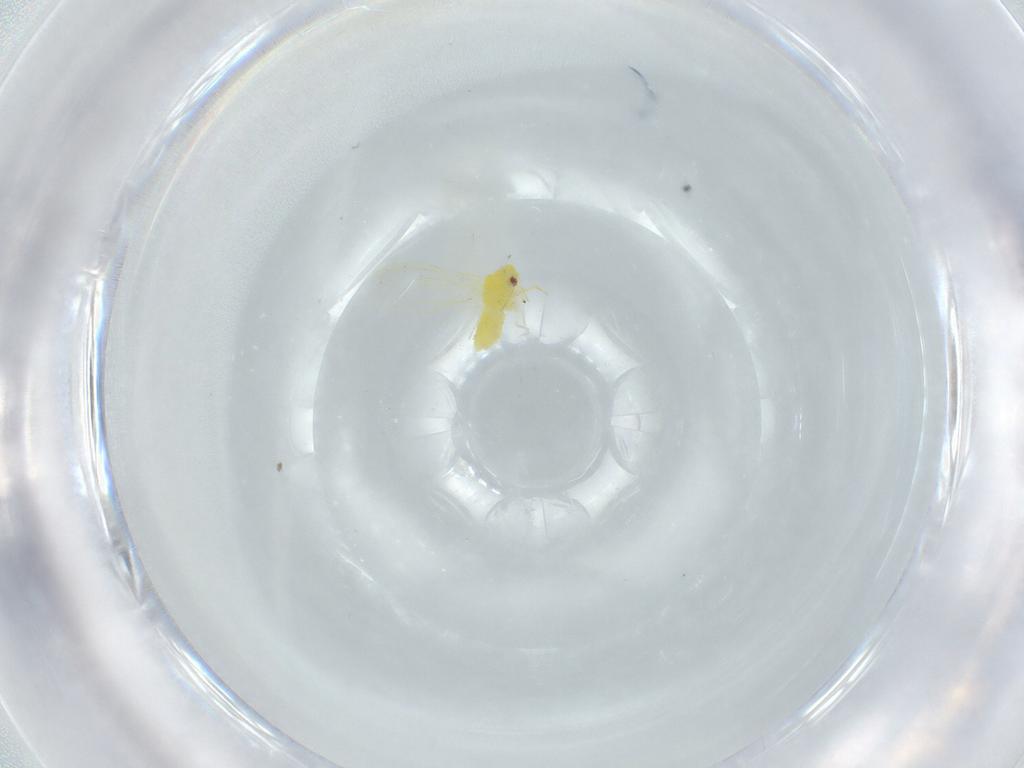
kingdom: Animalia
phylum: Arthropoda
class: Insecta
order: Hemiptera
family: Aleyrodidae
